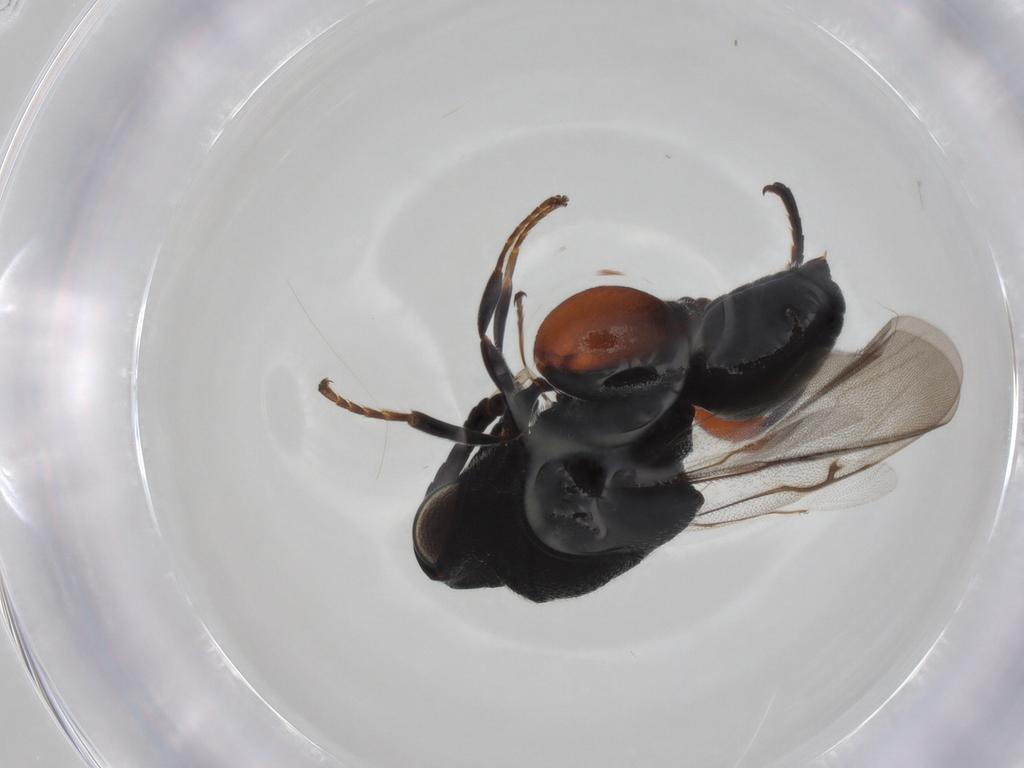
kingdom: Animalia
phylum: Arthropoda
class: Insecta
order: Hymenoptera
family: Chalcididae
